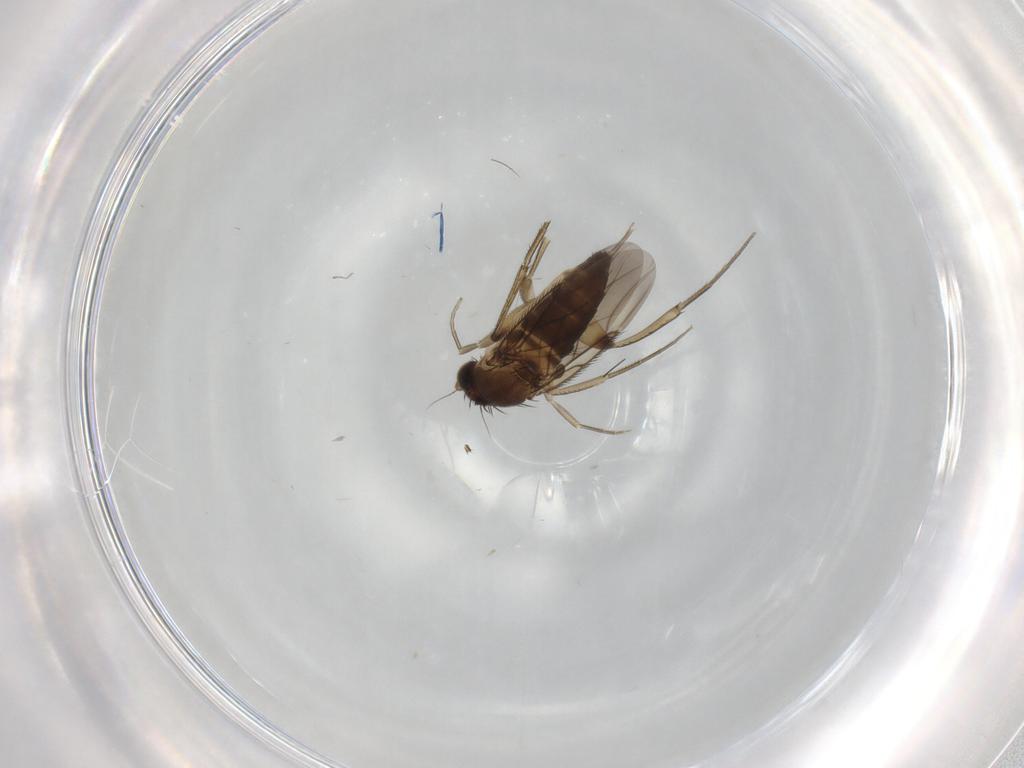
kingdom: Animalia
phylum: Arthropoda
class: Insecta
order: Diptera
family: Phoridae
